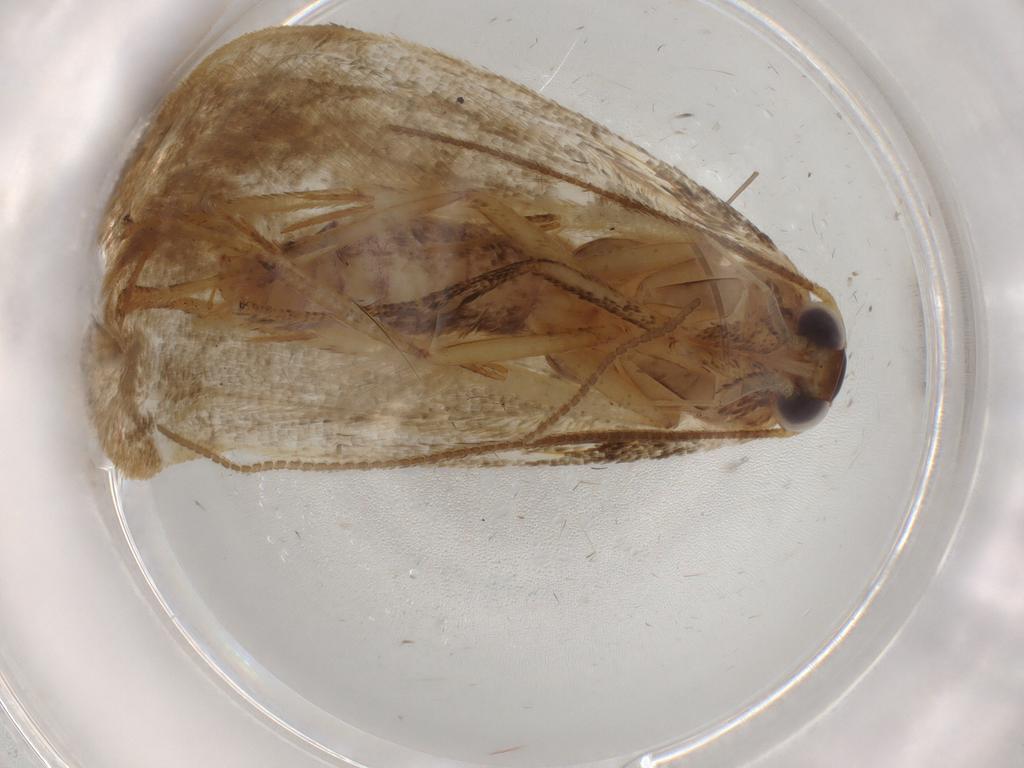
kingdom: Animalia
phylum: Arthropoda
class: Insecta
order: Lepidoptera
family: Blastobasidae
